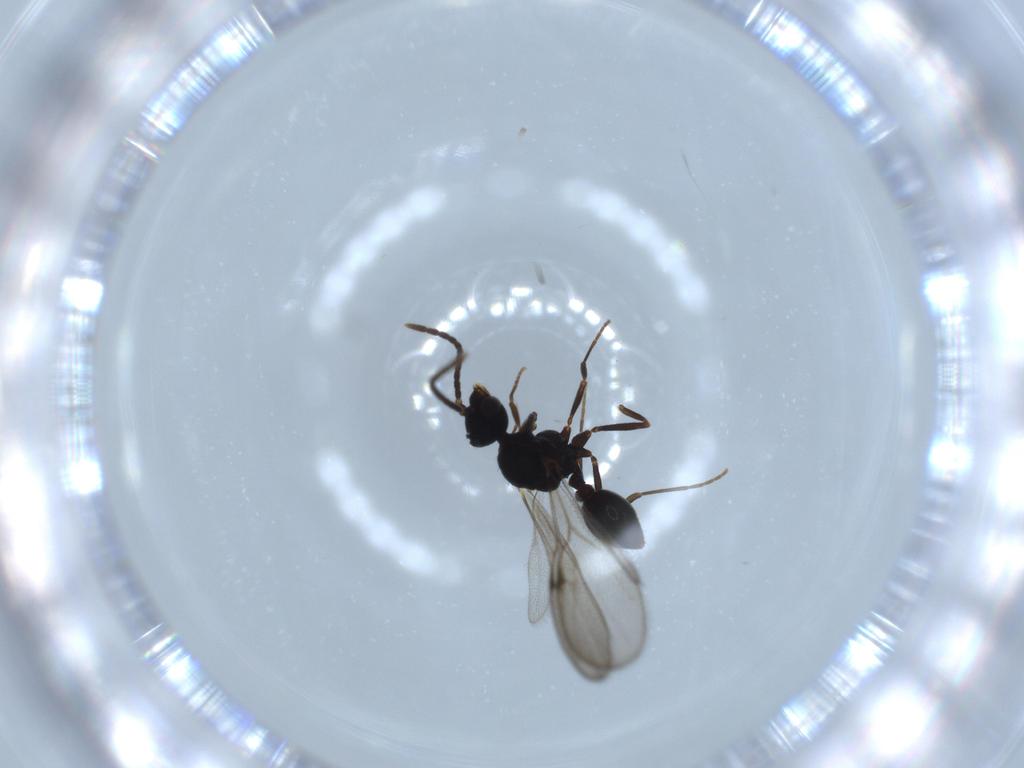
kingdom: Animalia
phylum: Arthropoda
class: Insecta
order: Hymenoptera
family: Formicidae
